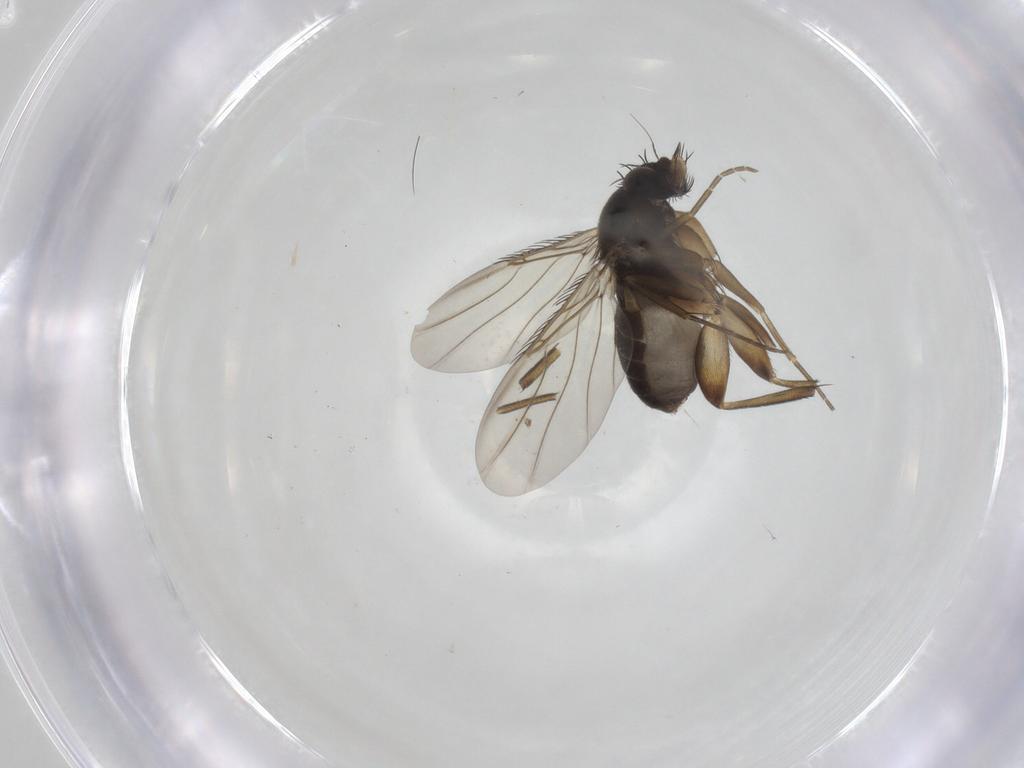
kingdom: Animalia
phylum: Arthropoda
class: Insecta
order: Diptera
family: Phoridae
